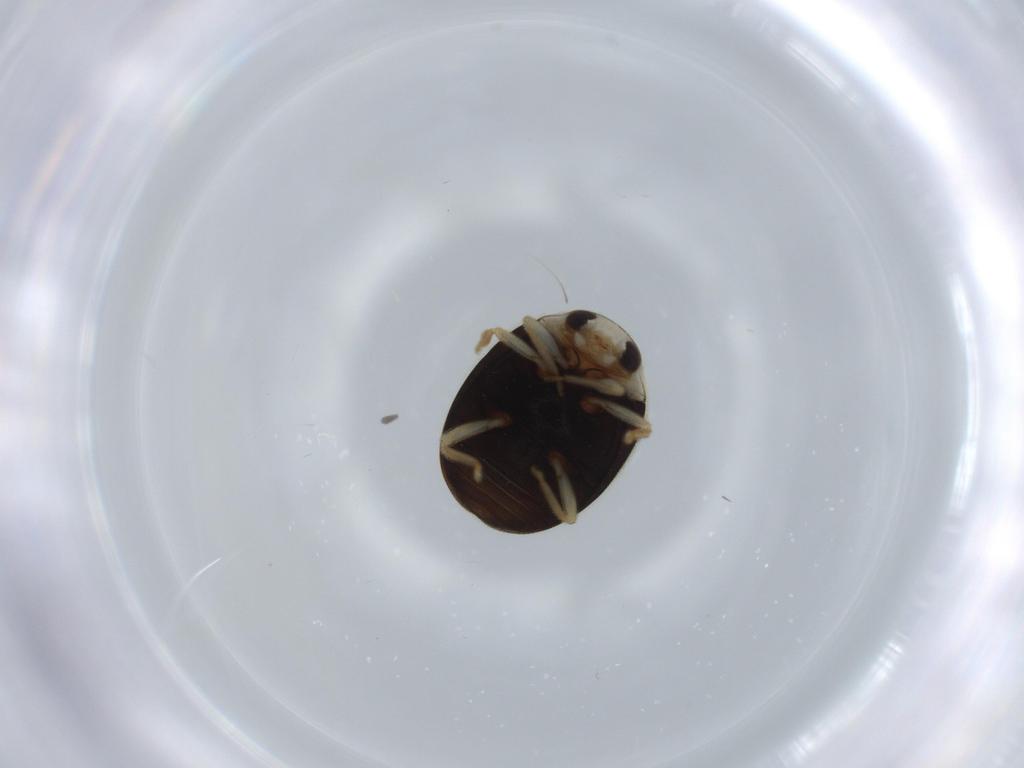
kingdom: Animalia
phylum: Arthropoda
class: Insecta
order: Coleoptera
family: Coccinellidae
